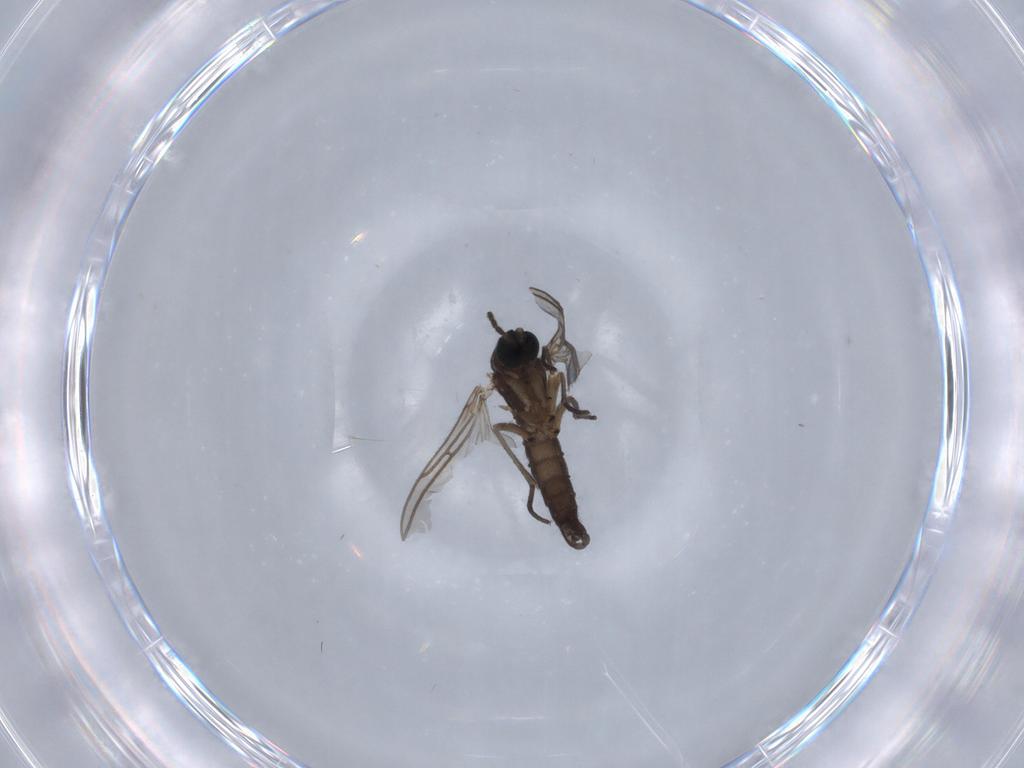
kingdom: Animalia
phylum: Arthropoda
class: Insecta
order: Diptera
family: Sciaridae
